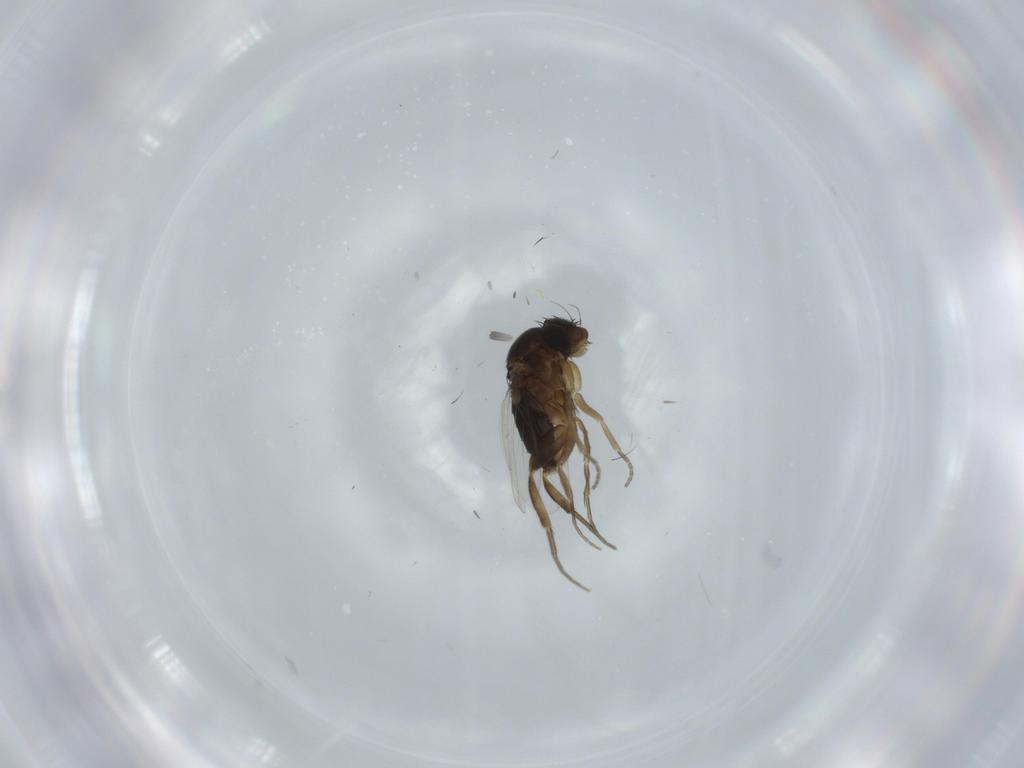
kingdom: Animalia
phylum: Arthropoda
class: Insecta
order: Diptera
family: Phoridae
